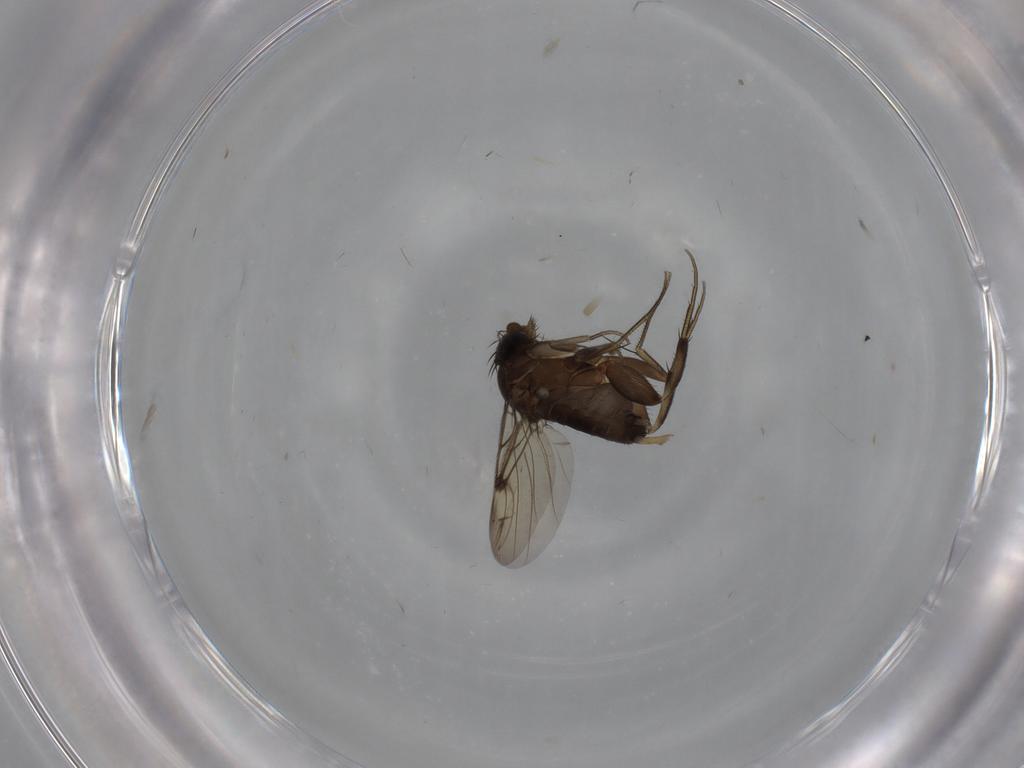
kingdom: Animalia
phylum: Arthropoda
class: Insecta
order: Diptera
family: Phoridae
